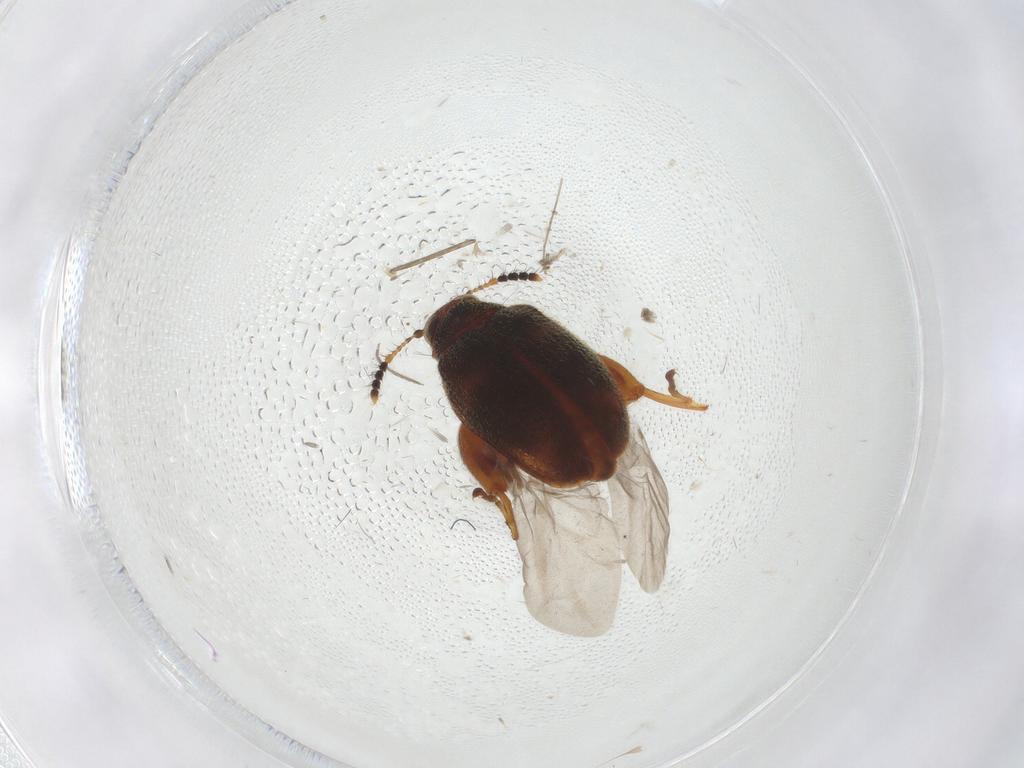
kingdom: Animalia
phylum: Arthropoda
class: Insecta
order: Coleoptera
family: Chrysomelidae
